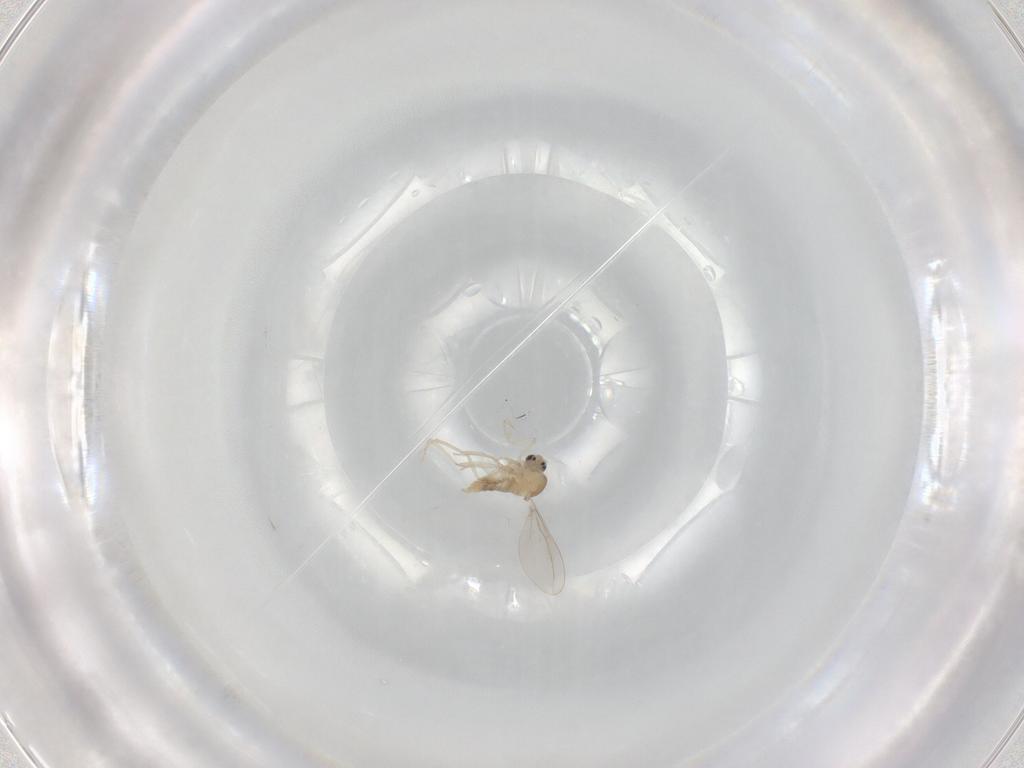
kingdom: Animalia
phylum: Arthropoda
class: Insecta
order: Diptera
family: Cecidomyiidae
